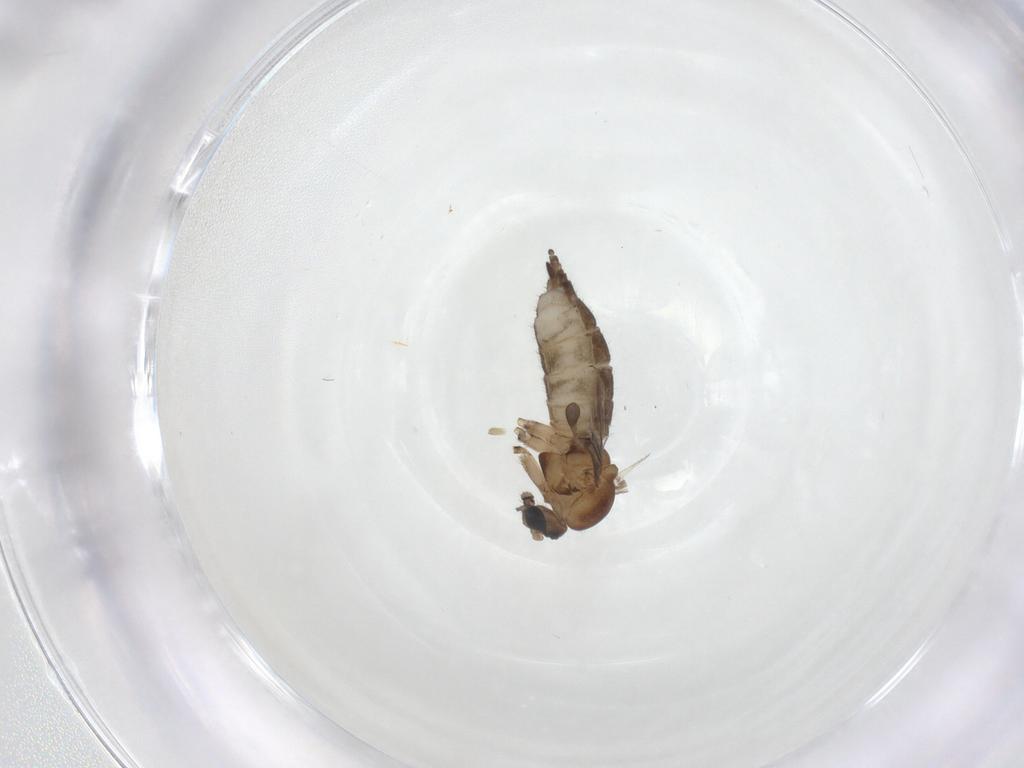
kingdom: Animalia
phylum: Arthropoda
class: Insecta
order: Diptera
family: Sciaridae
